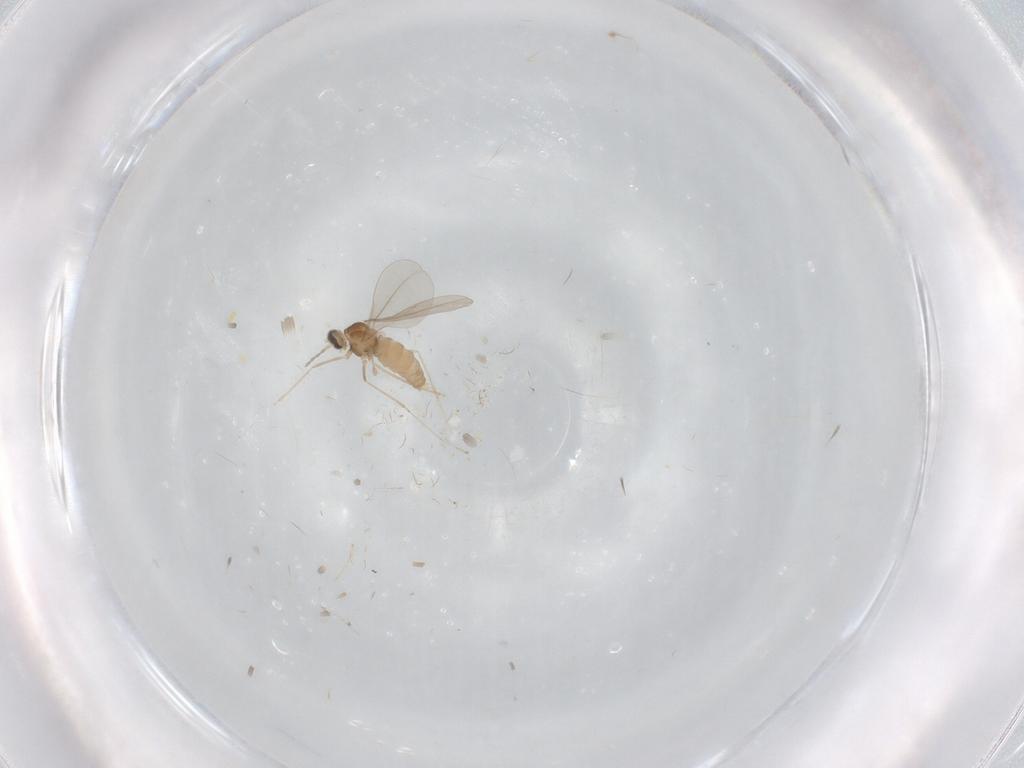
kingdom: Animalia
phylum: Arthropoda
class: Insecta
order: Diptera
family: Cecidomyiidae
